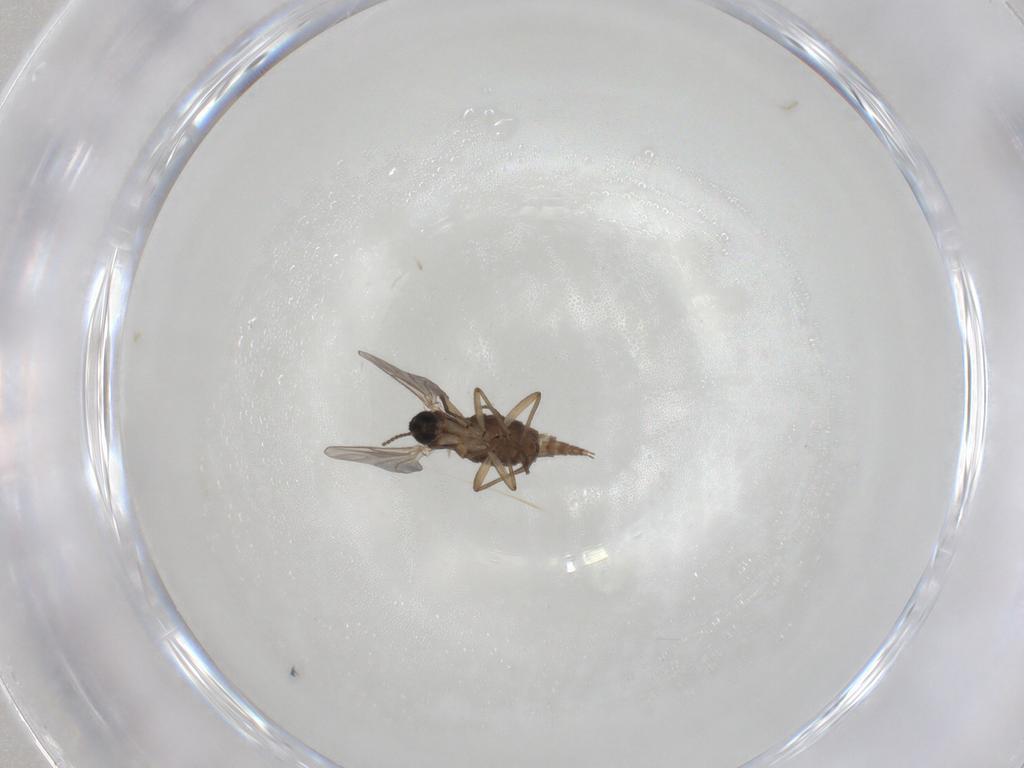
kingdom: Animalia
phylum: Arthropoda
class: Insecta
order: Diptera
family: Sciaridae
